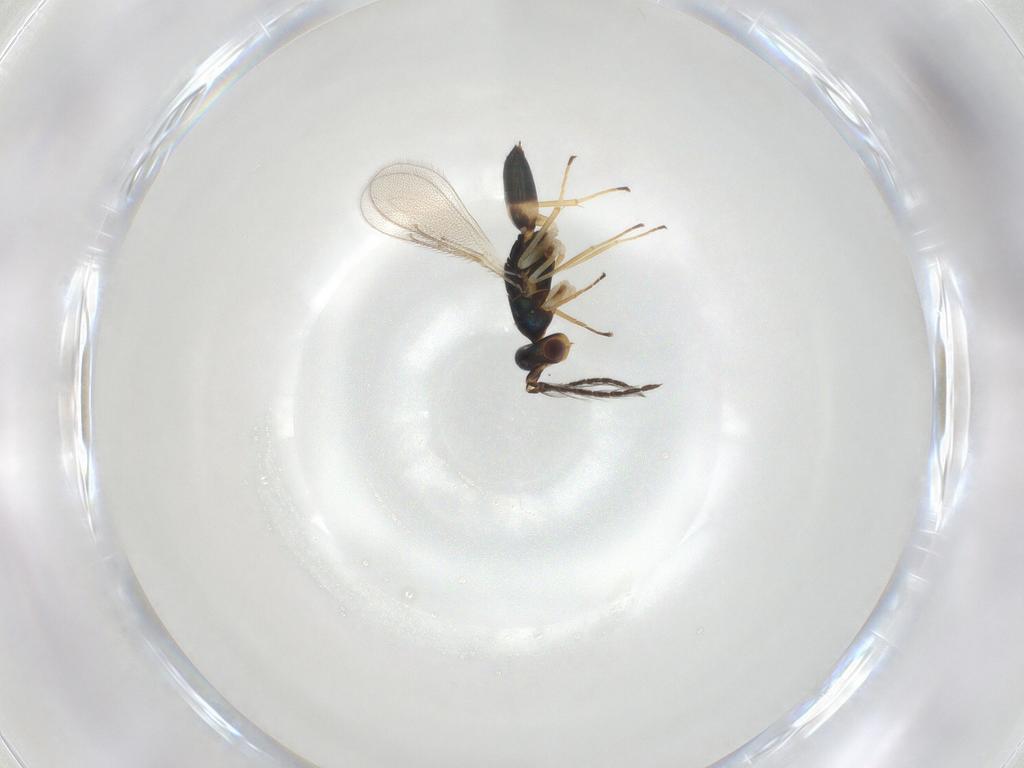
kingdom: Animalia
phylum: Arthropoda
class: Insecta
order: Hymenoptera
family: Eulophidae
